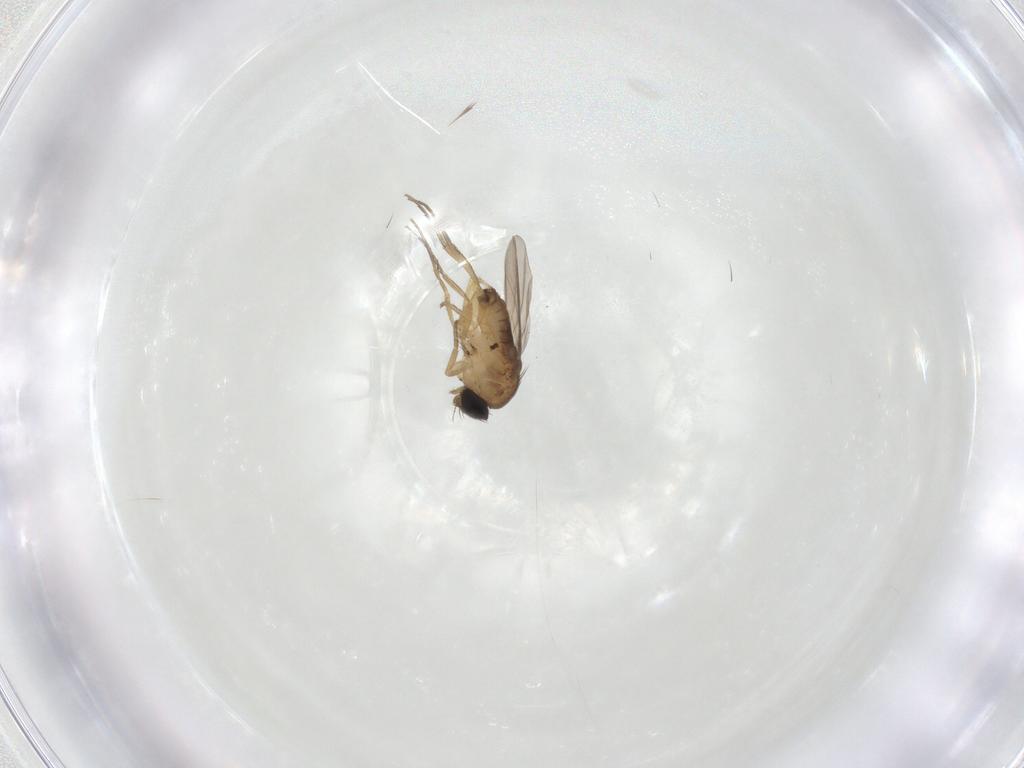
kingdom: Animalia
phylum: Arthropoda
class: Insecta
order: Diptera
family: Phoridae
